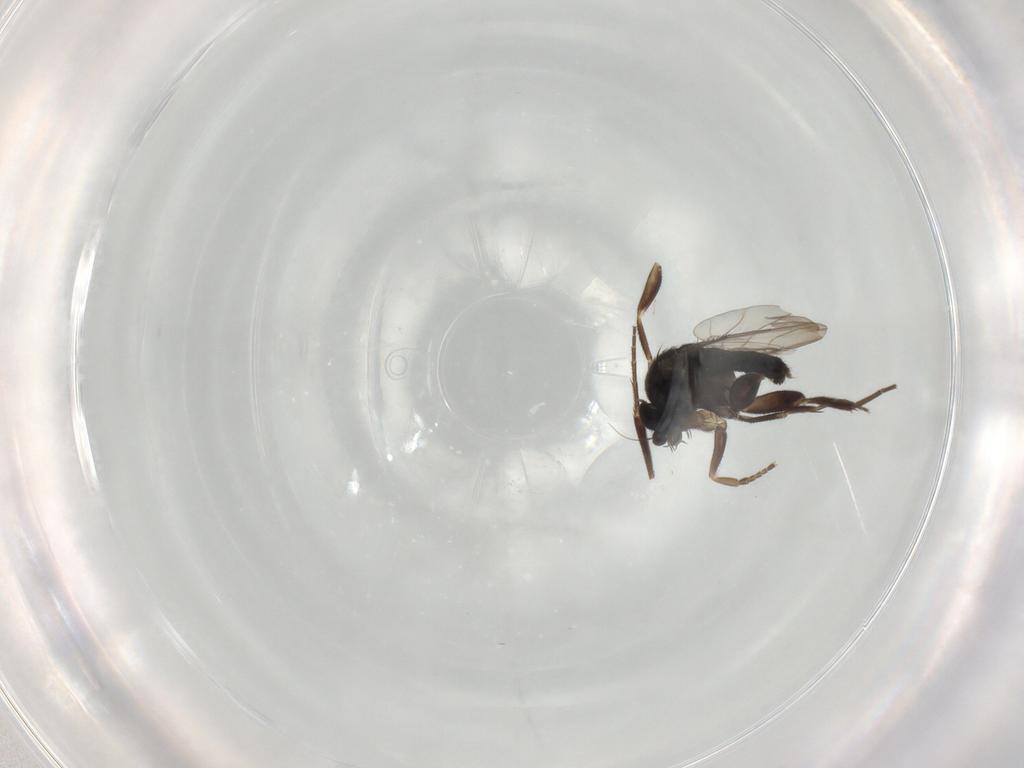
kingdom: Animalia
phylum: Arthropoda
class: Insecta
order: Diptera
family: Phoridae
